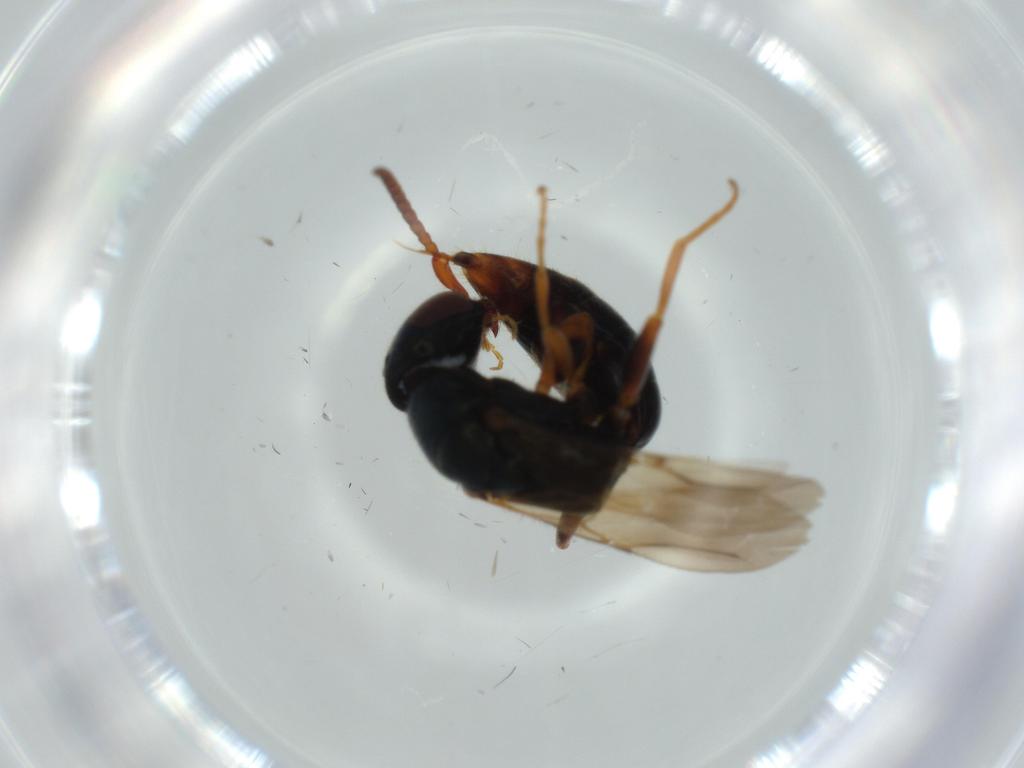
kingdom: Animalia
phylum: Arthropoda
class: Insecta
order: Hymenoptera
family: Bethylidae
